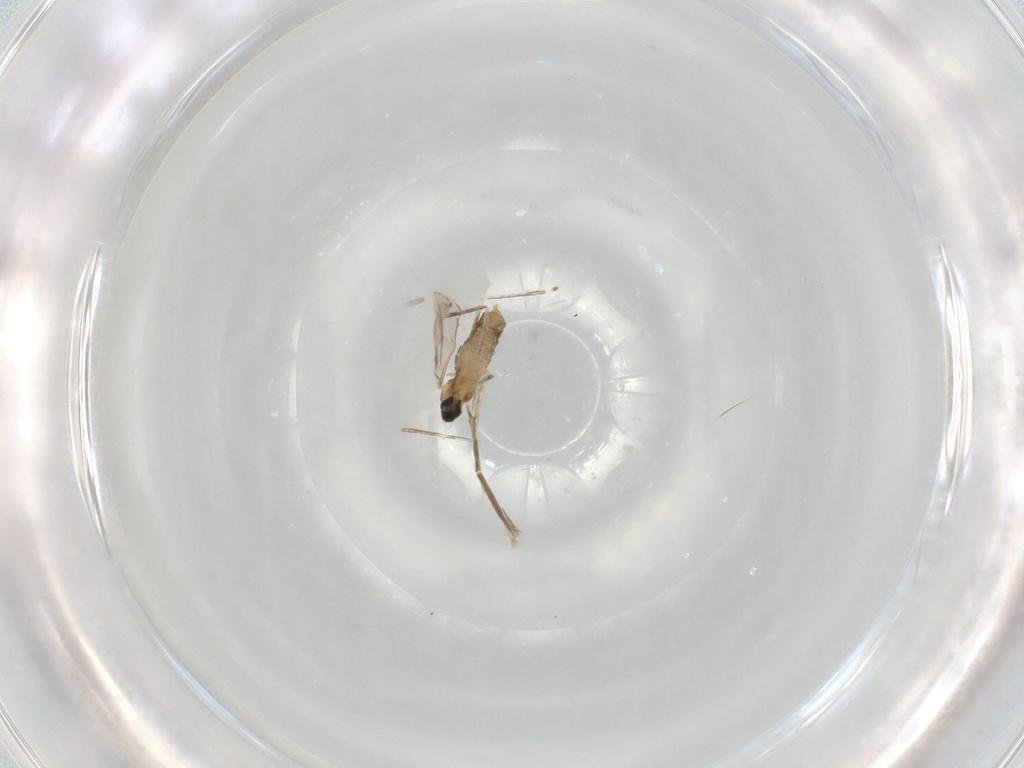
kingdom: Animalia
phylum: Arthropoda
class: Insecta
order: Diptera
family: Cecidomyiidae
